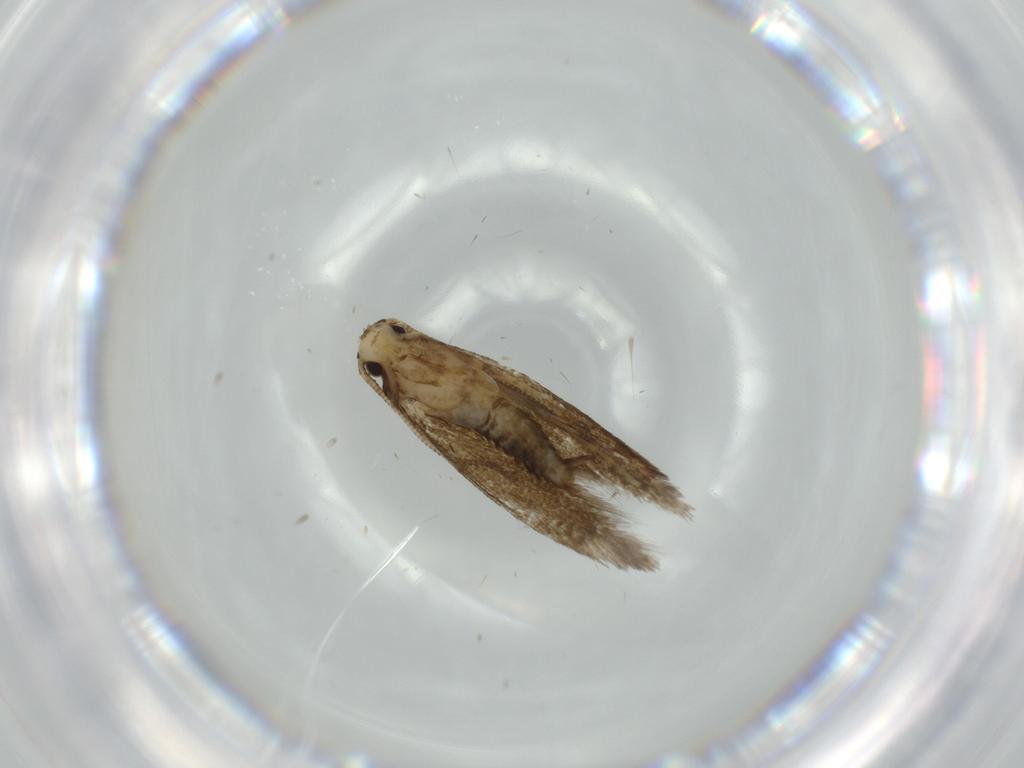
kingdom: Animalia
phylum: Arthropoda
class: Insecta
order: Lepidoptera
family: Tineidae
